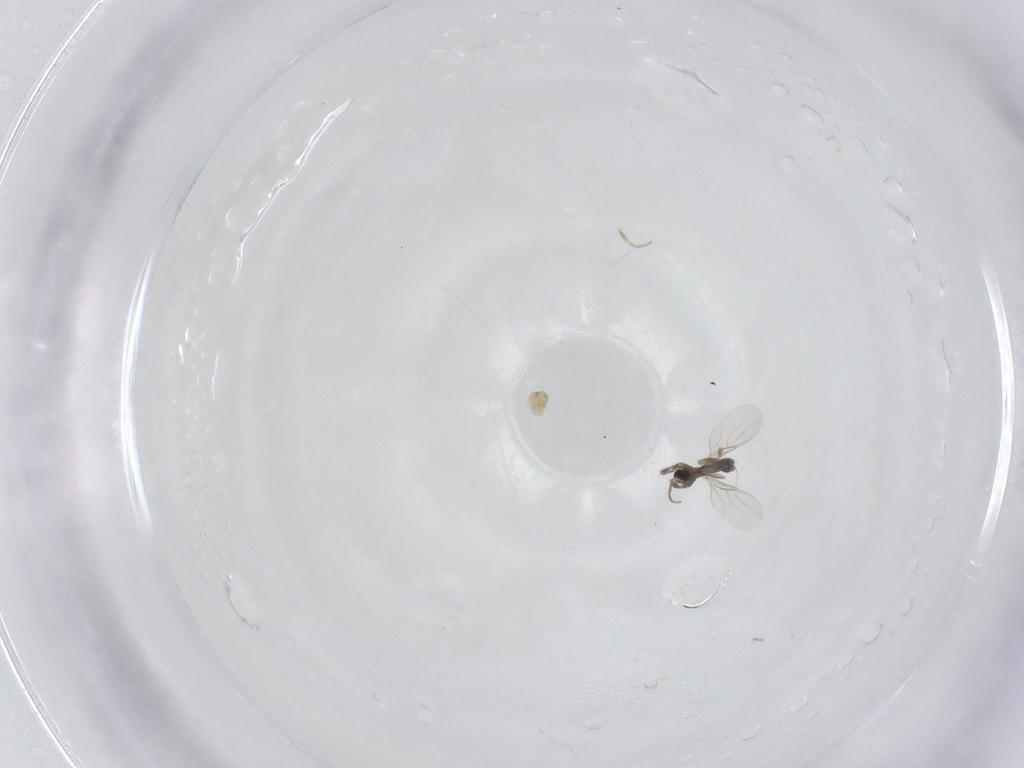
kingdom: Animalia
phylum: Arthropoda
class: Insecta
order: Diptera
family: Phoridae
